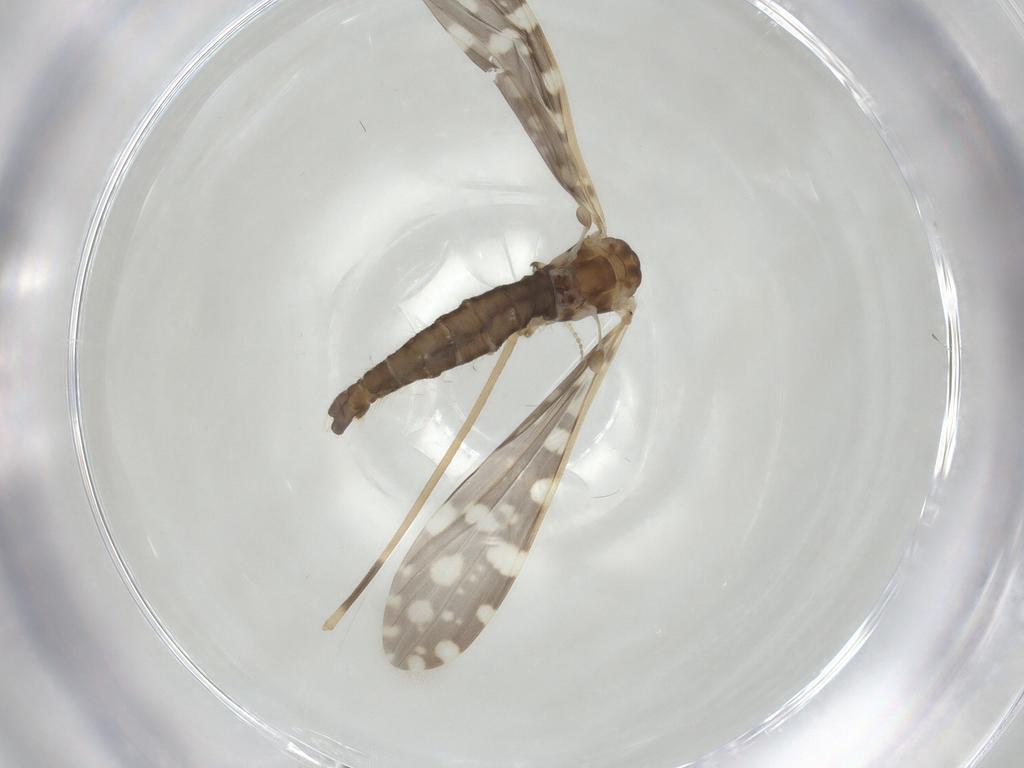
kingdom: Animalia
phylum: Arthropoda
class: Insecta
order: Diptera
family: Limoniidae
